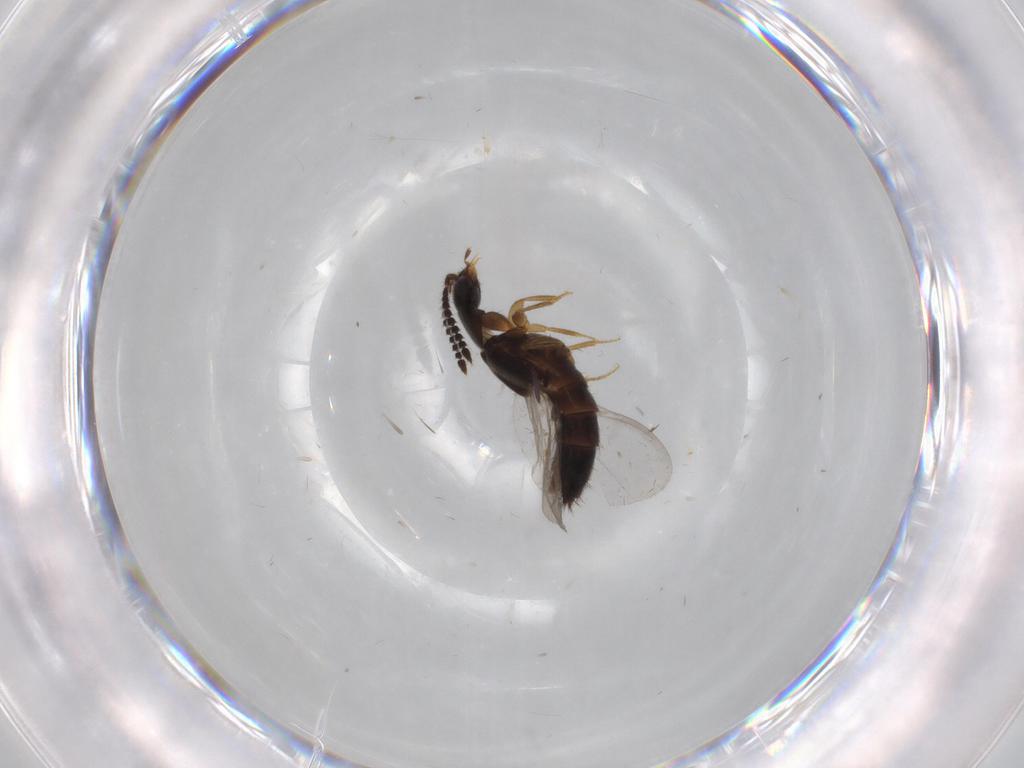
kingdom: Animalia
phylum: Arthropoda
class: Insecta
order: Coleoptera
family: Staphylinidae
